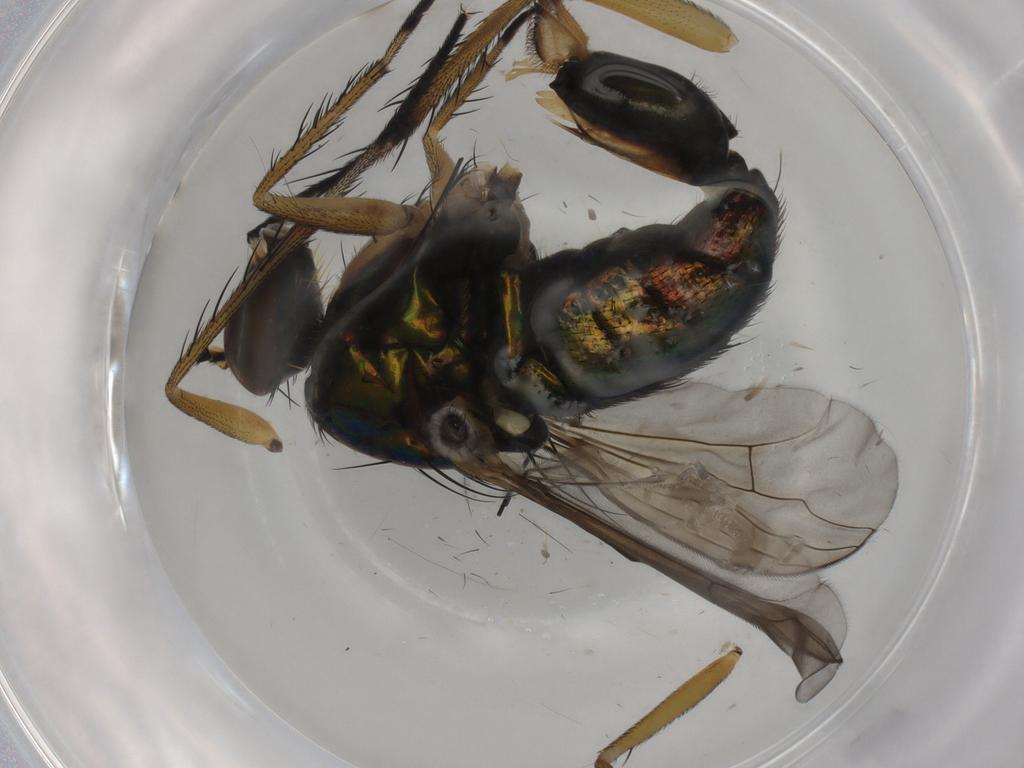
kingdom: Animalia
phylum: Arthropoda
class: Insecta
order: Diptera
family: Dolichopodidae
